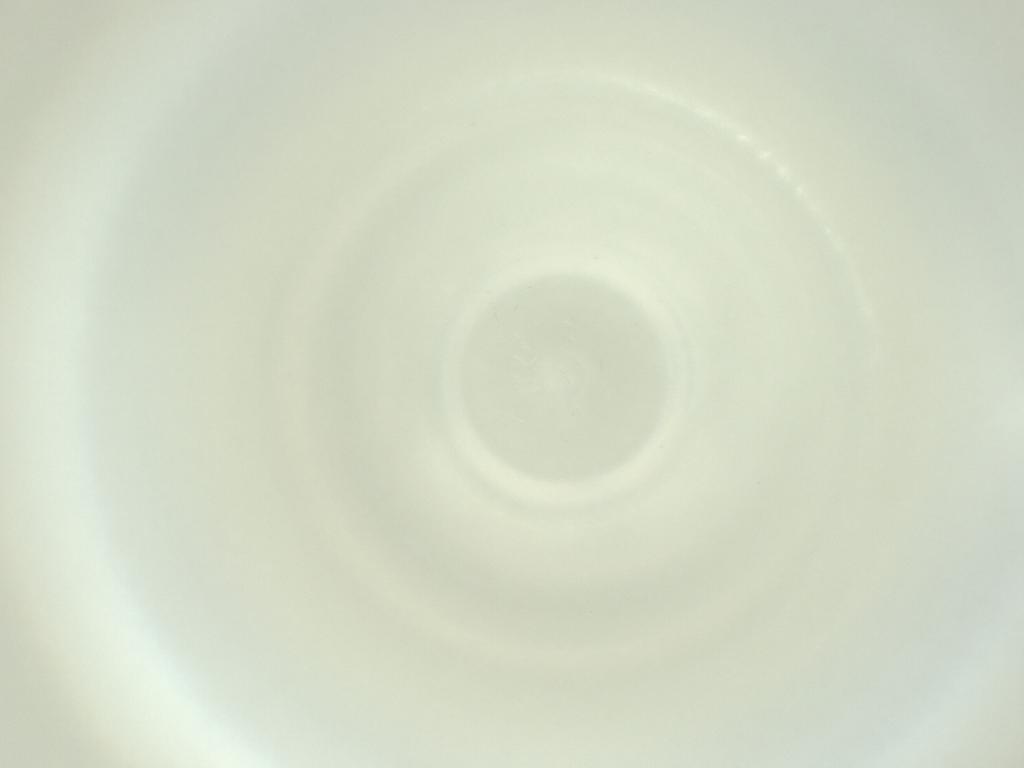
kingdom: Animalia
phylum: Arthropoda
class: Insecta
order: Diptera
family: Cecidomyiidae
